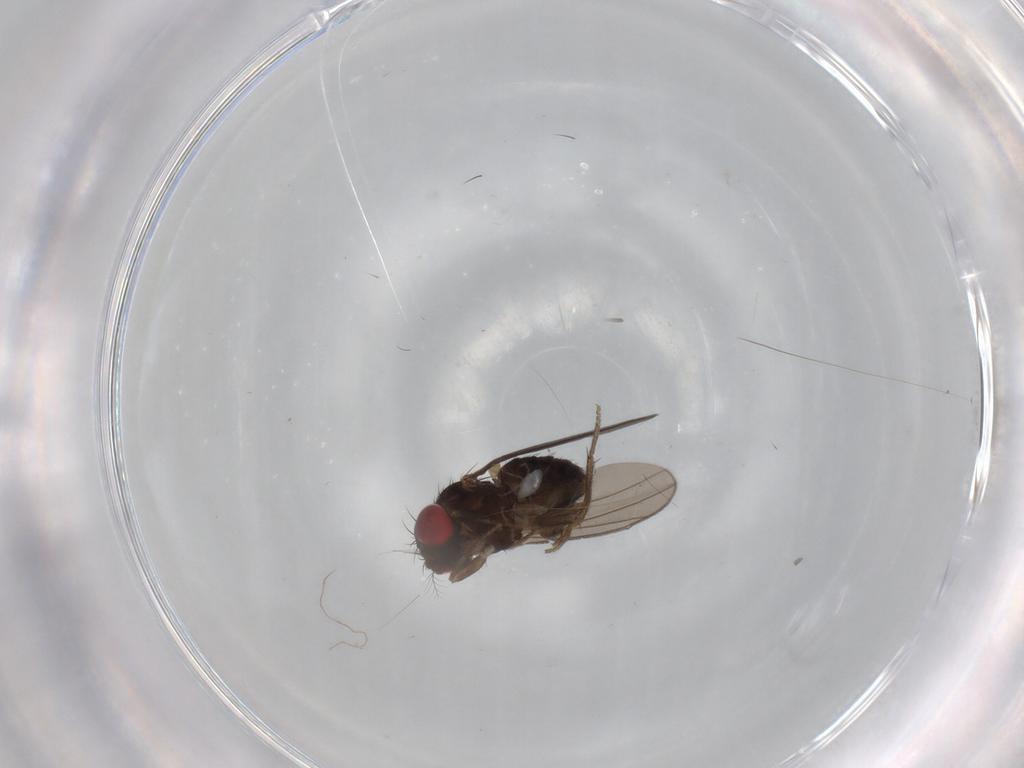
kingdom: Animalia
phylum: Arthropoda
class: Insecta
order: Diptera
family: Drosophilidae
